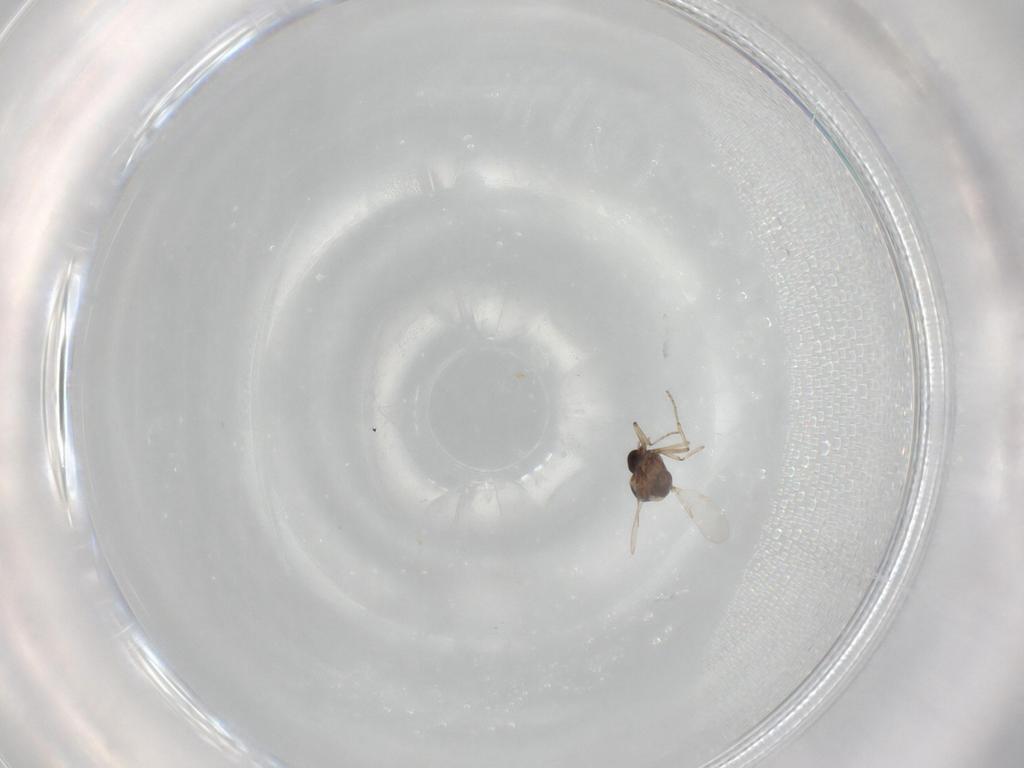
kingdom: Animalia
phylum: Arthropoda
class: Insecta
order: Diptera
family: Ceratopogonidae
